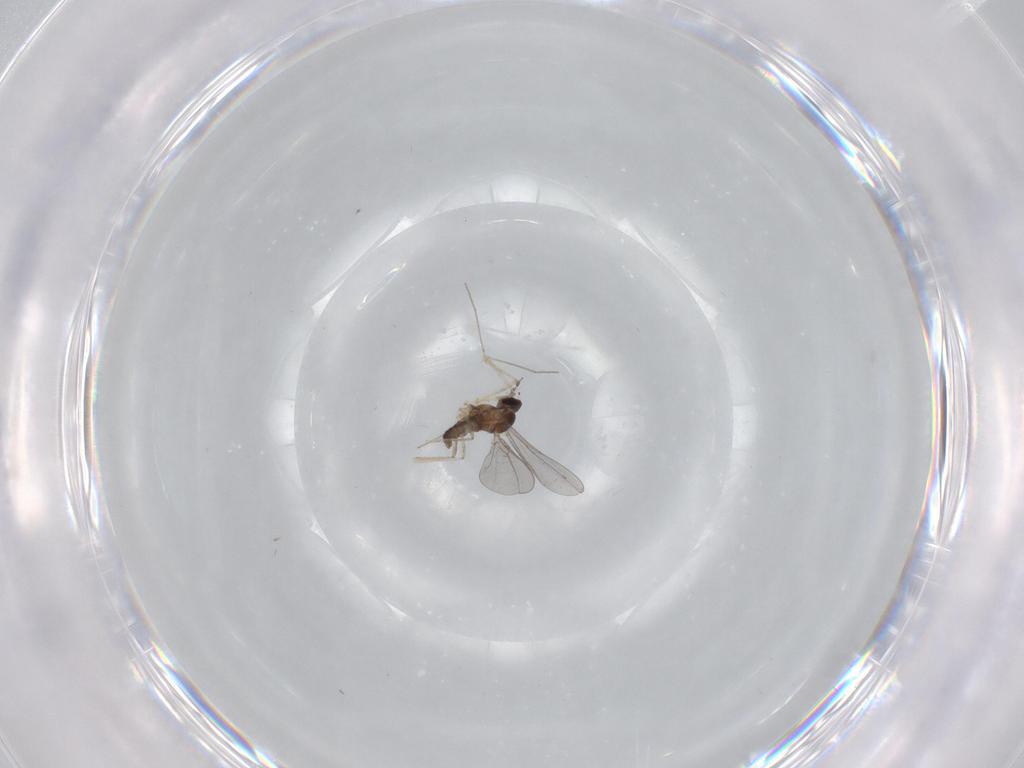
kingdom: Animalia
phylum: Arthropoda
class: Insecta
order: Diptera
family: Cecidomyiidae
